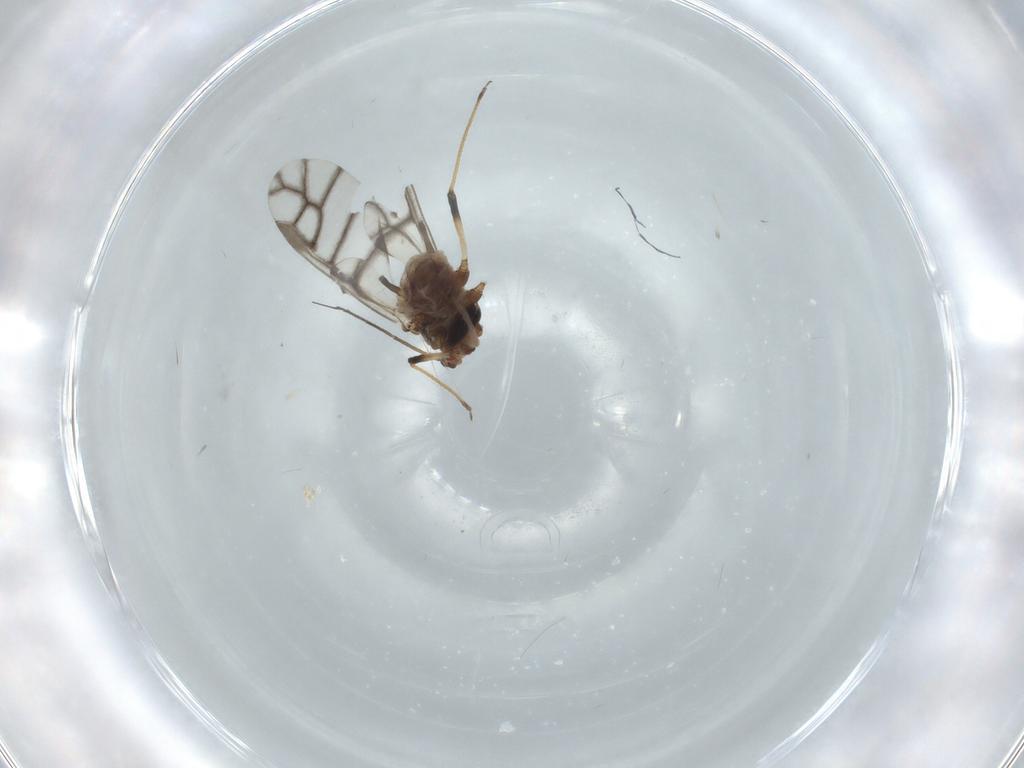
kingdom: Animalia
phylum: Arthropoda
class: Insecta
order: Hemiptera
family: Aphididae
